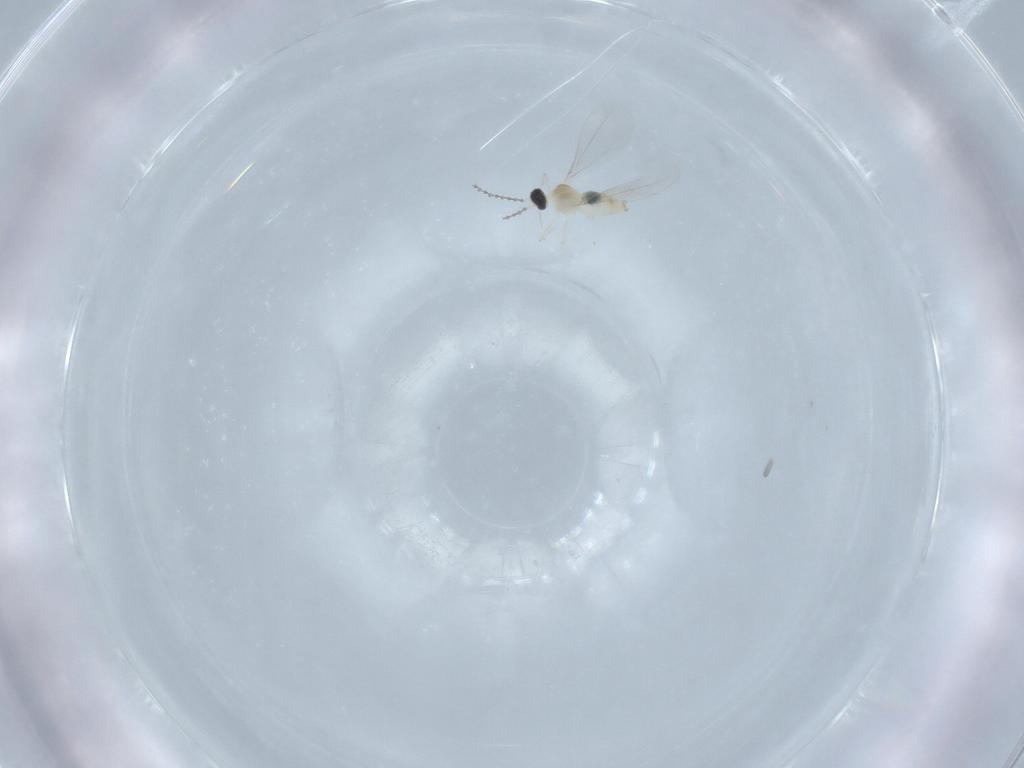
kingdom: Animalia
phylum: Arthropoda
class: Insecta
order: Diptera
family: Cecidomyiidae
